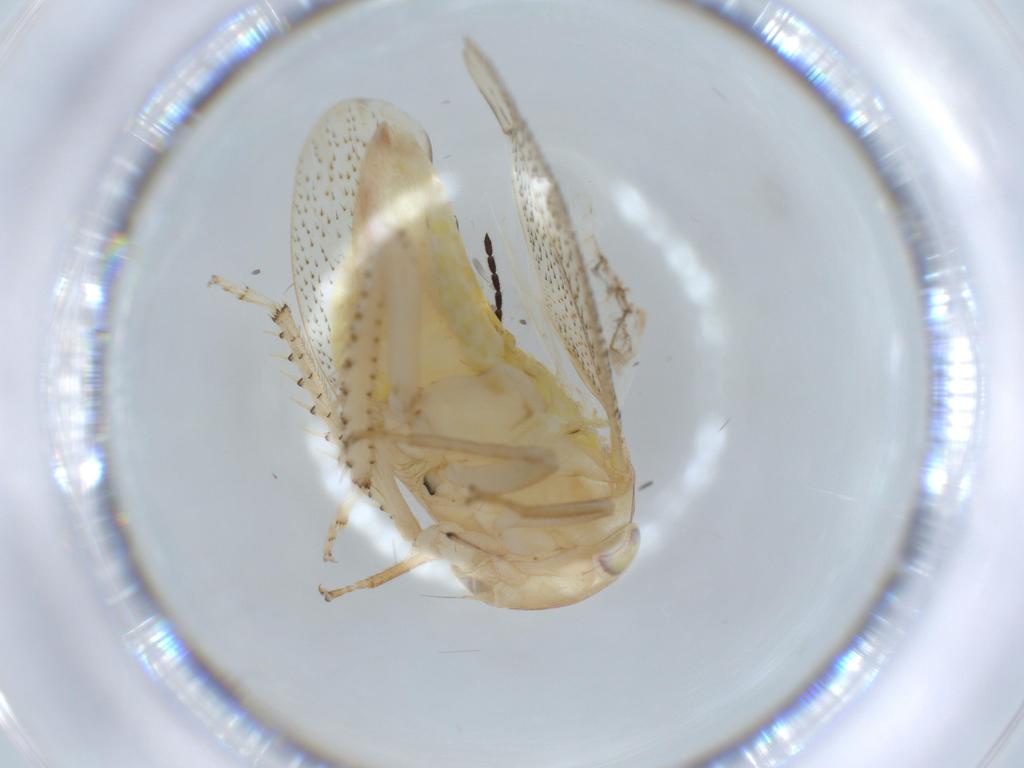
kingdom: Animalia
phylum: Arthropoda
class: Insecta
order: Hemiptera
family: Cicadellidae
